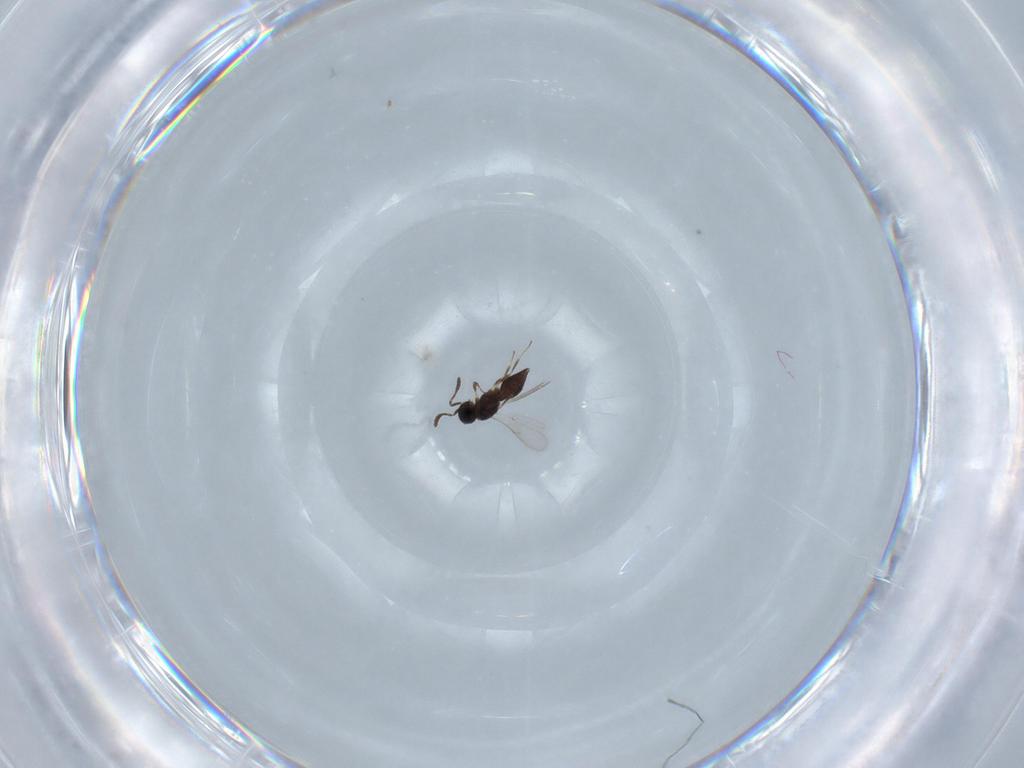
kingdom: Animalia
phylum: Arthropoda
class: Insecta
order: Hymenoptera
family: Scelionidae
